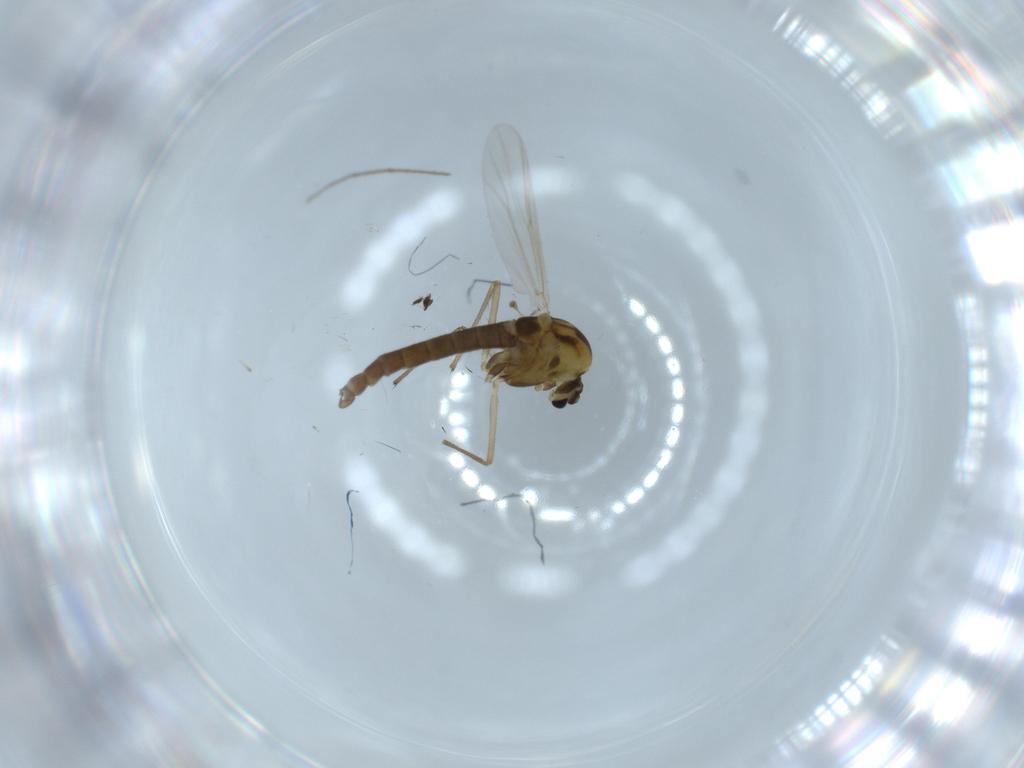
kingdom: Animalia
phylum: Arthropoda
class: Insecta
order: Diptera
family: Chironomidae
